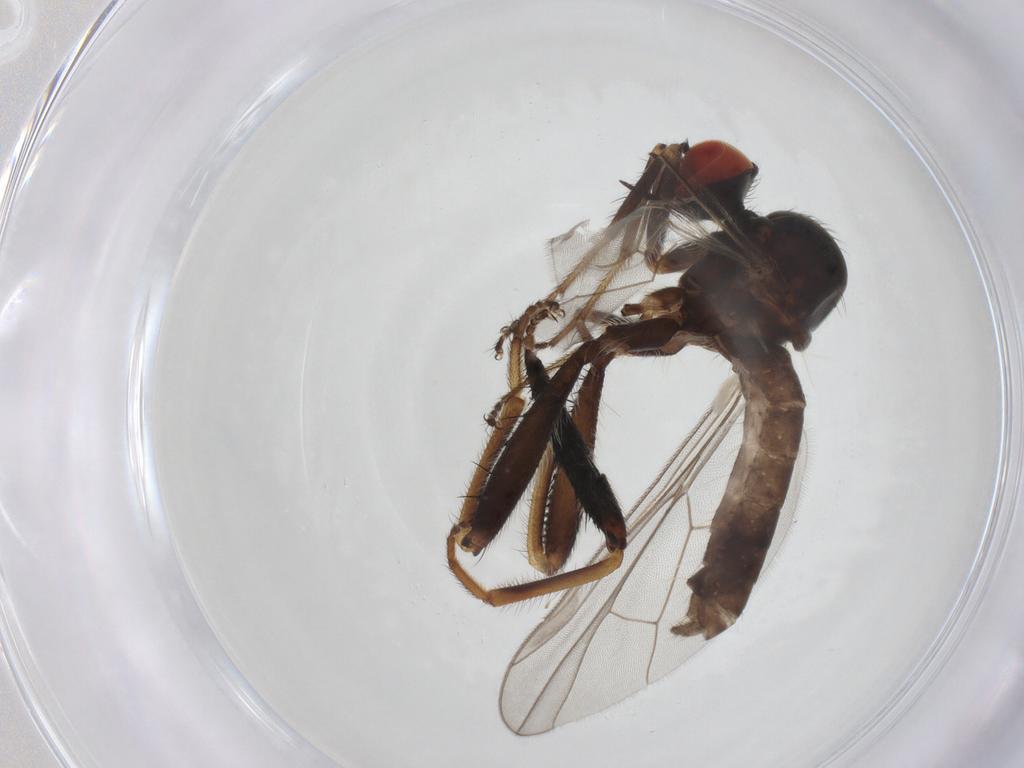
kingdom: Animalia
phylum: Arthropoda
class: Insecta
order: Diptera
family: Hybotidae
